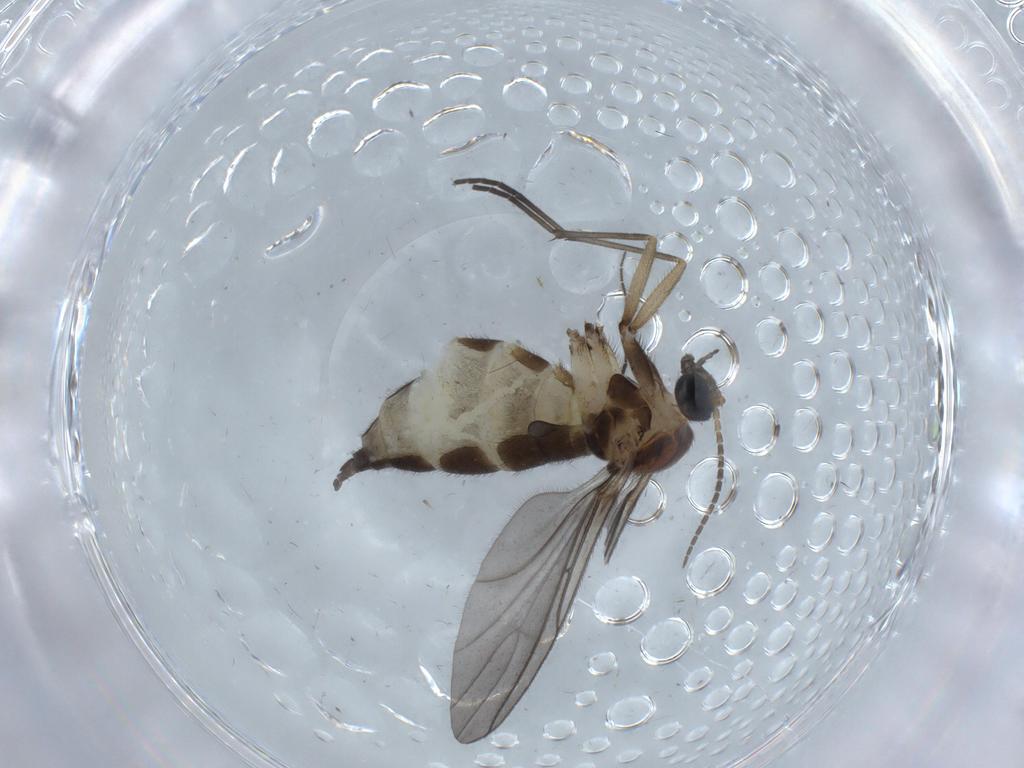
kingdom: Animalia
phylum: Arthropoda
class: Insecta
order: Diptera
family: Sciaridae
